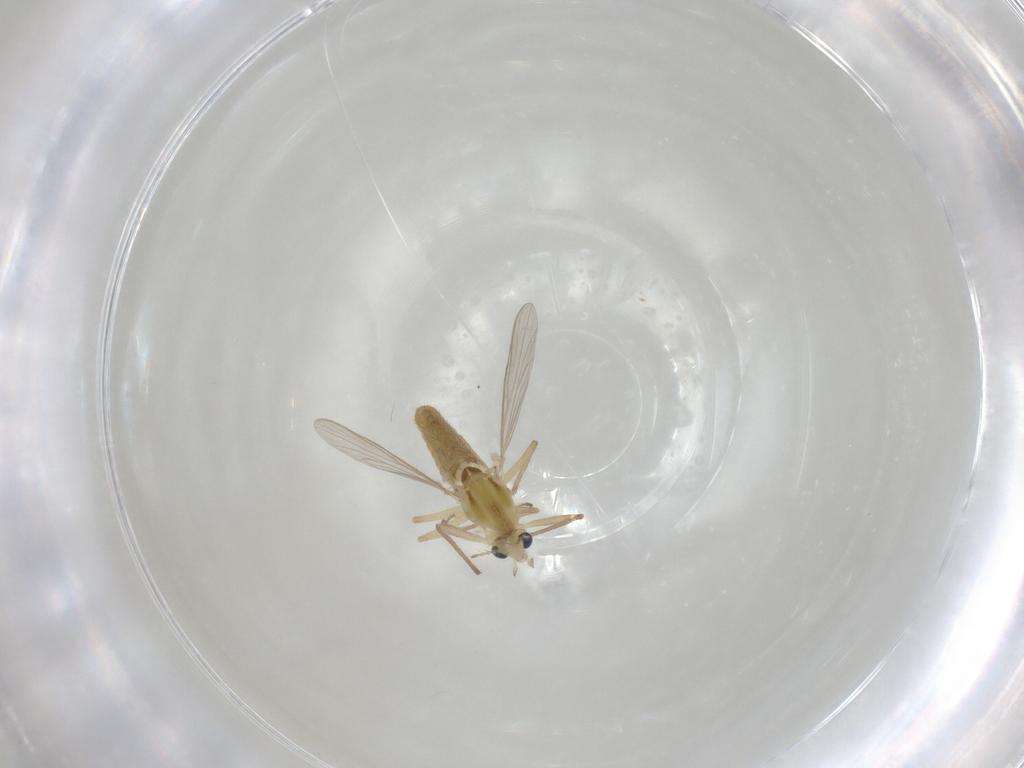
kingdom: Animalia
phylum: Arthropoda
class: Insecta
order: Diptera
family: Chironomidae
